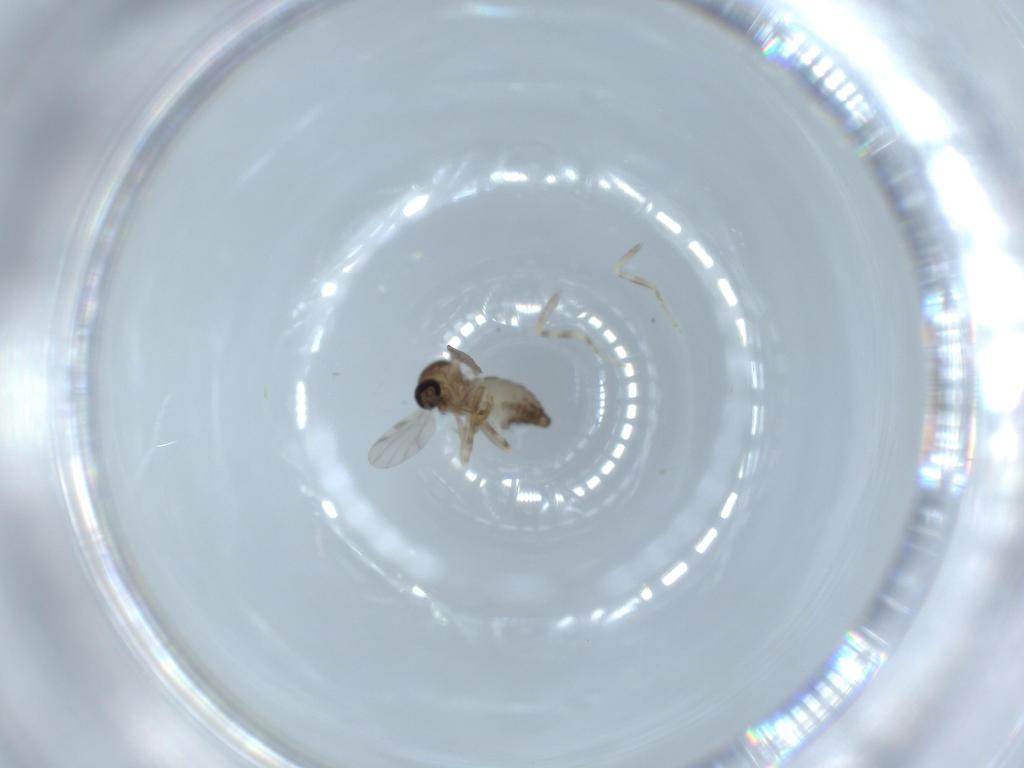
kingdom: Animalia
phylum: Arthropoda
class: Insecta
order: Diptera
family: Ceratopogonidae
